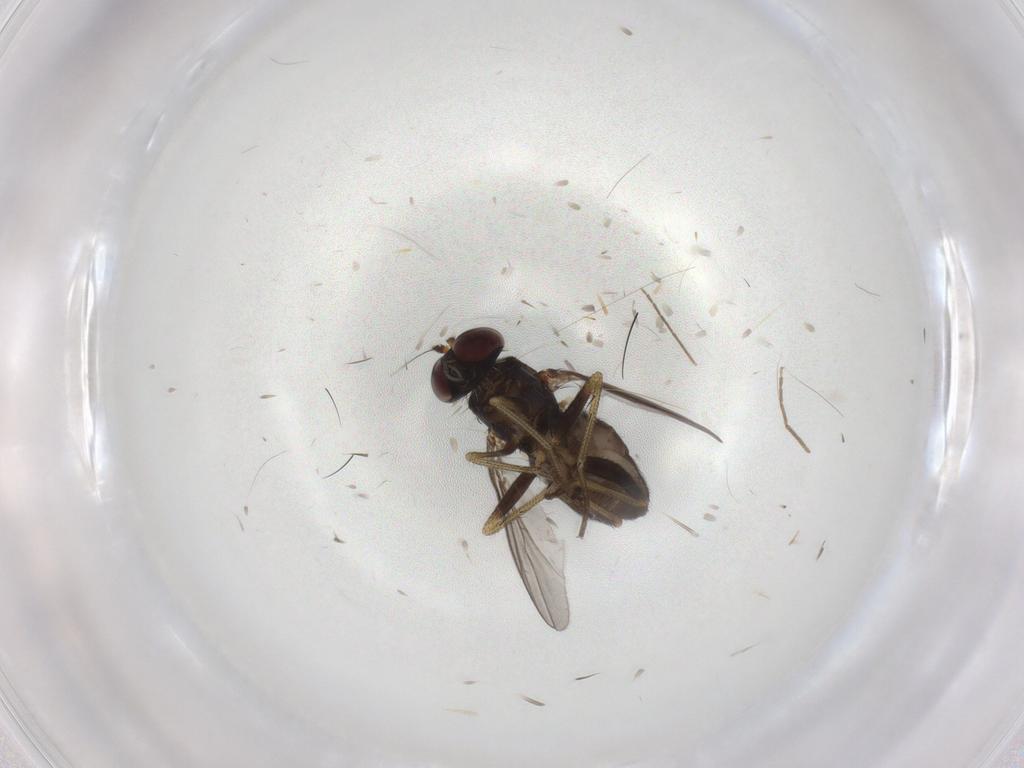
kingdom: Animalia
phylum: Arthropoda
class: Insecta
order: Diptera
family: Dolichopodidae
